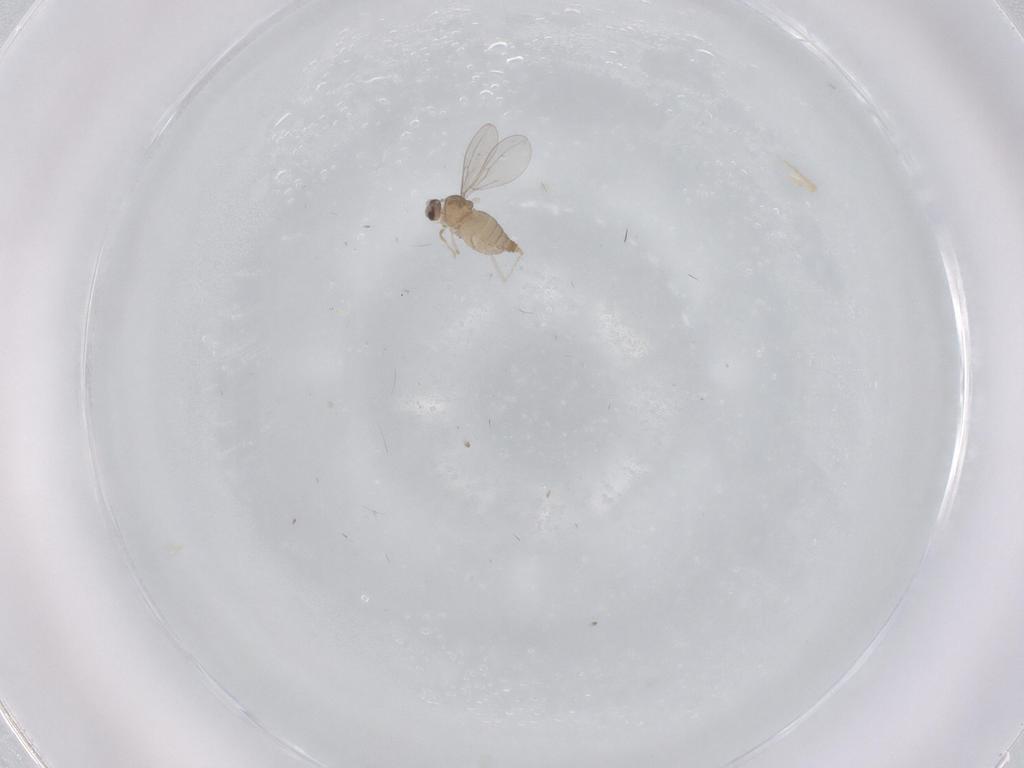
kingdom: Animalia
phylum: Arthropoda
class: Insecta
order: Diptera
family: Cecidomyiidae
